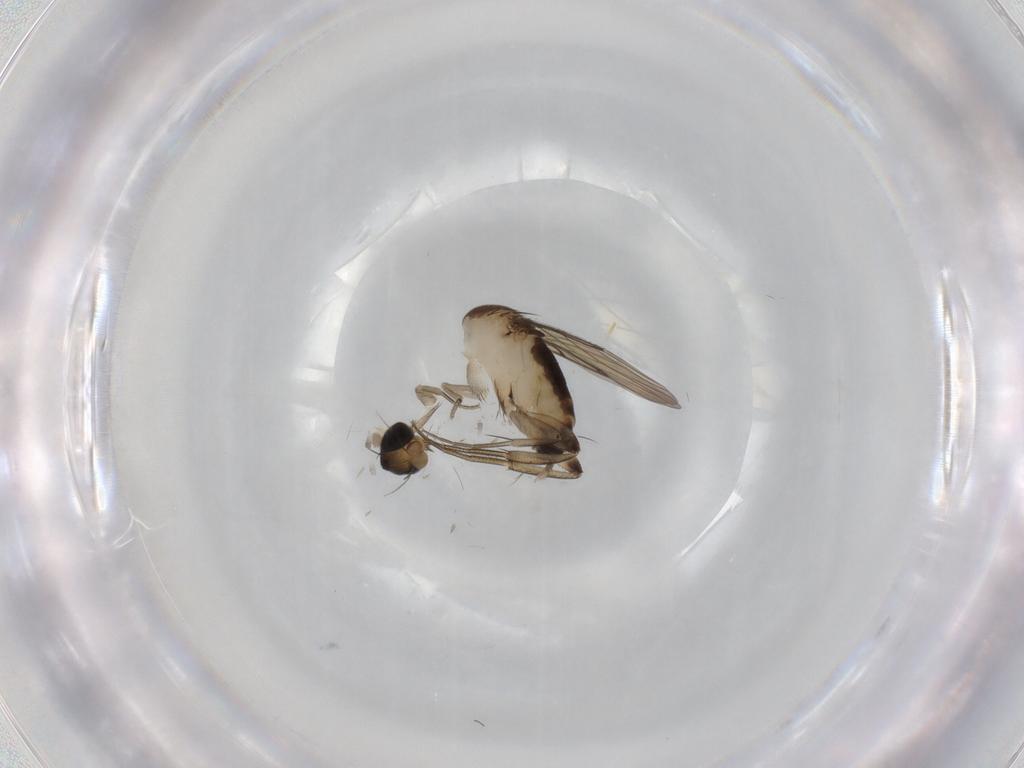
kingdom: Animalia
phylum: Arthropoda
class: Insecta
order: Diptera
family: Phoridae
